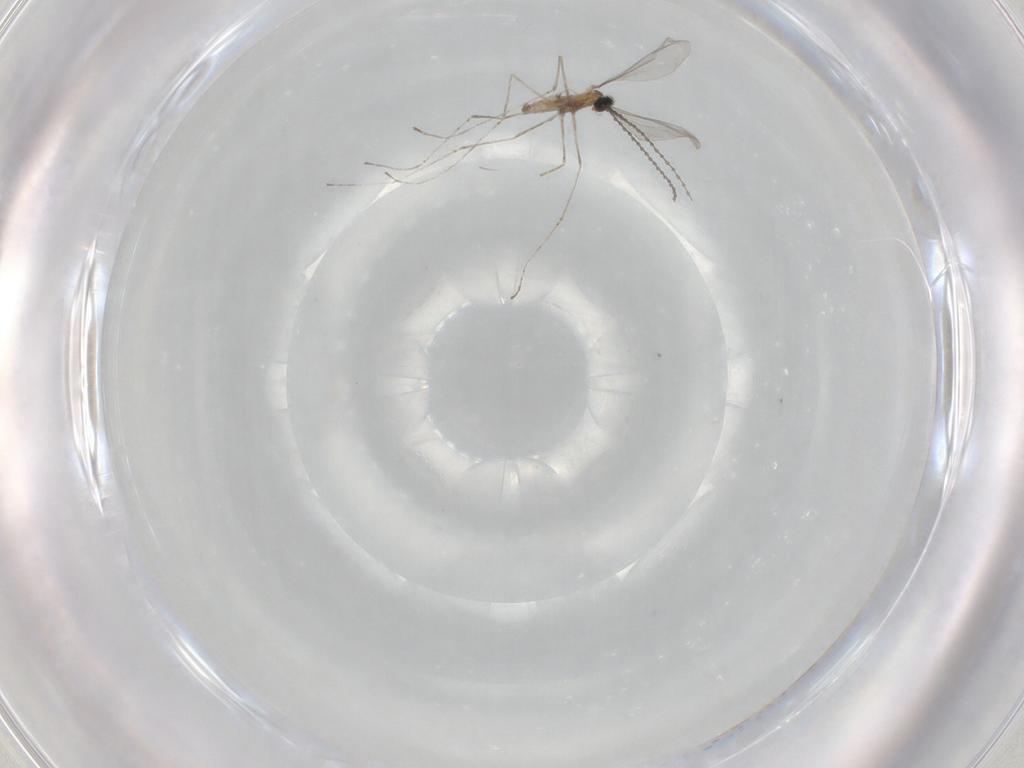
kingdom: Animalia
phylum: Arthropoda
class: Insecta
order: Diptera
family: Cecidomyiidae
